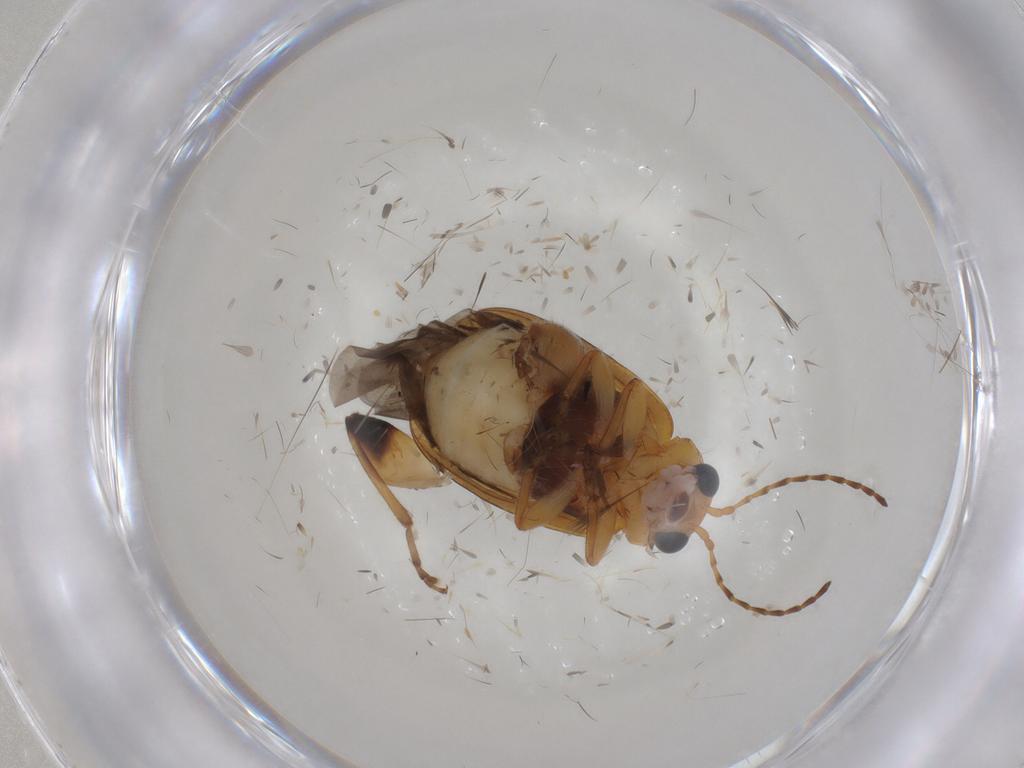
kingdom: Animalia
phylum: Arthropoda
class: Insecta
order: Coleoptera
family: Chrysomelidae
